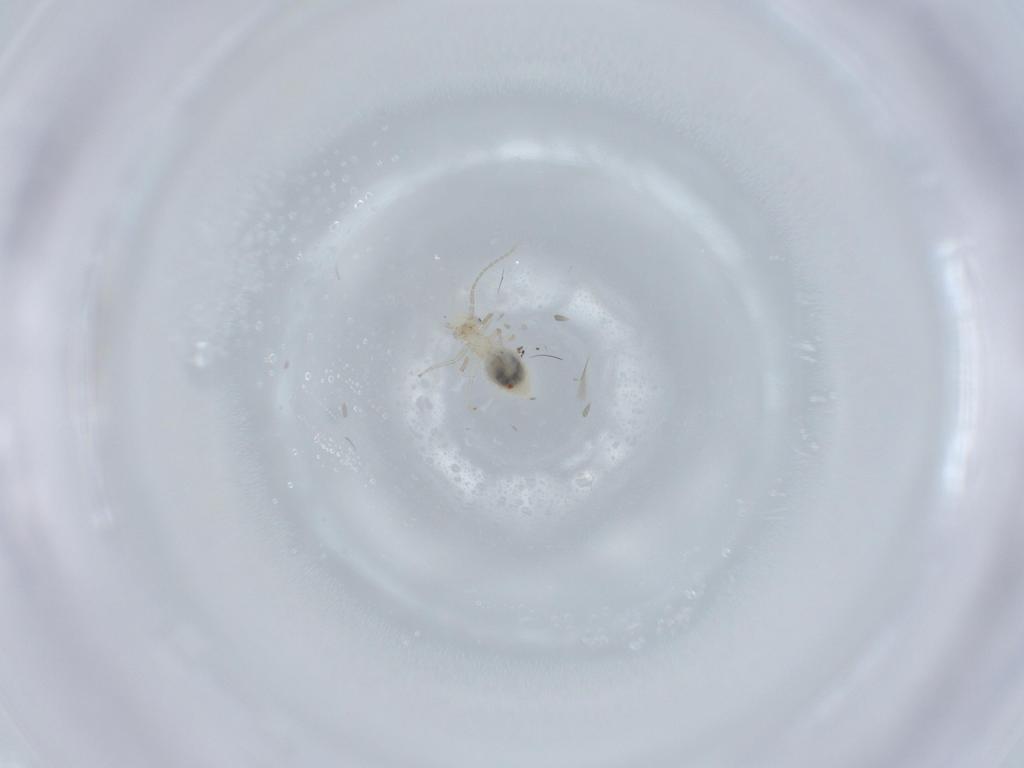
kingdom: Animalia
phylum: Arthropoda
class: Insecta
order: Psocodea
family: Caeciliusidae
